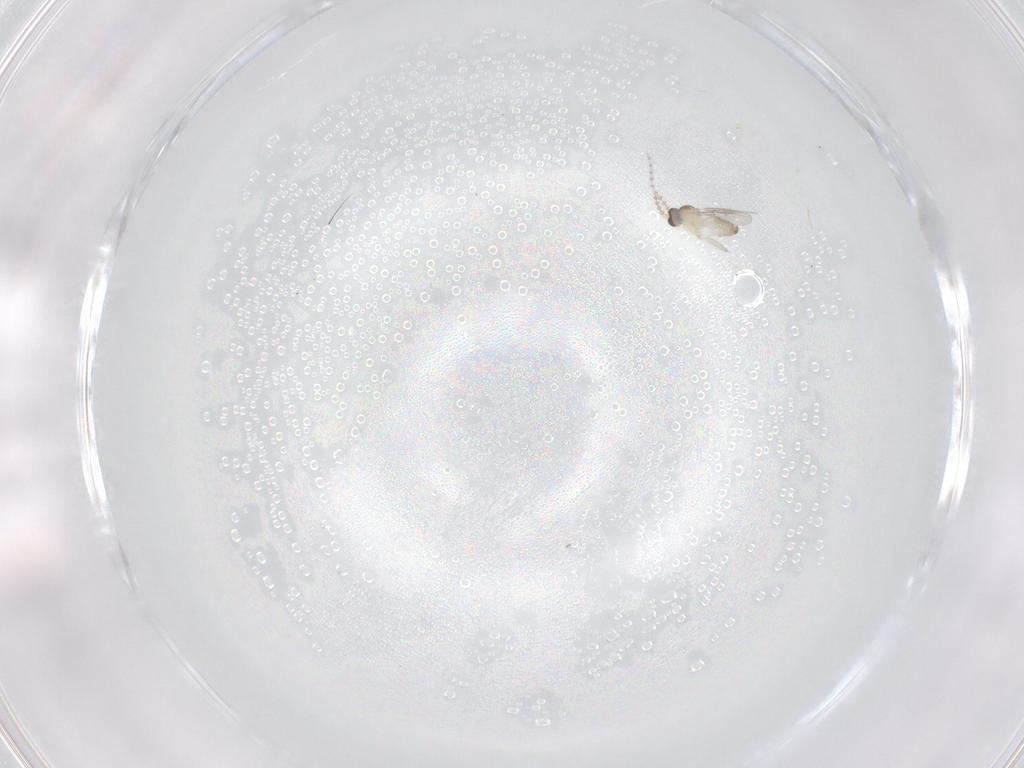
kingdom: Animalia
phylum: Arthropoda
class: Insecta
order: Diptera
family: Cecidomyiidae
